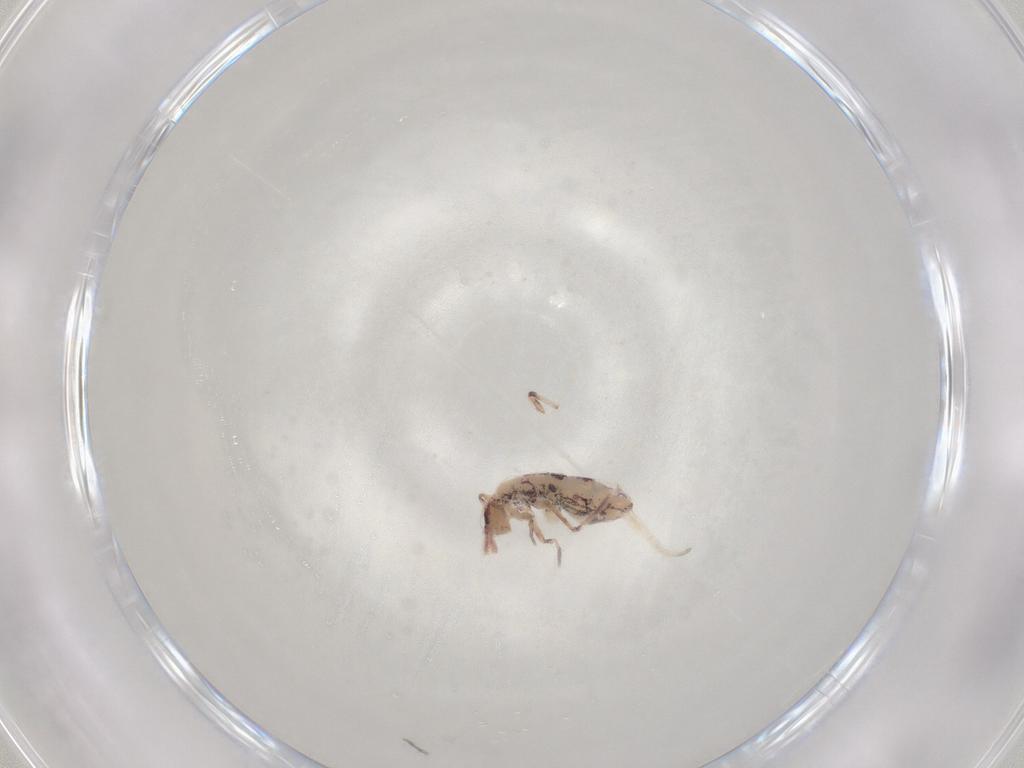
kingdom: Animalia
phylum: Arthropoda
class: Collembola
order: Entomobryomorpha
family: Entomobryidae
